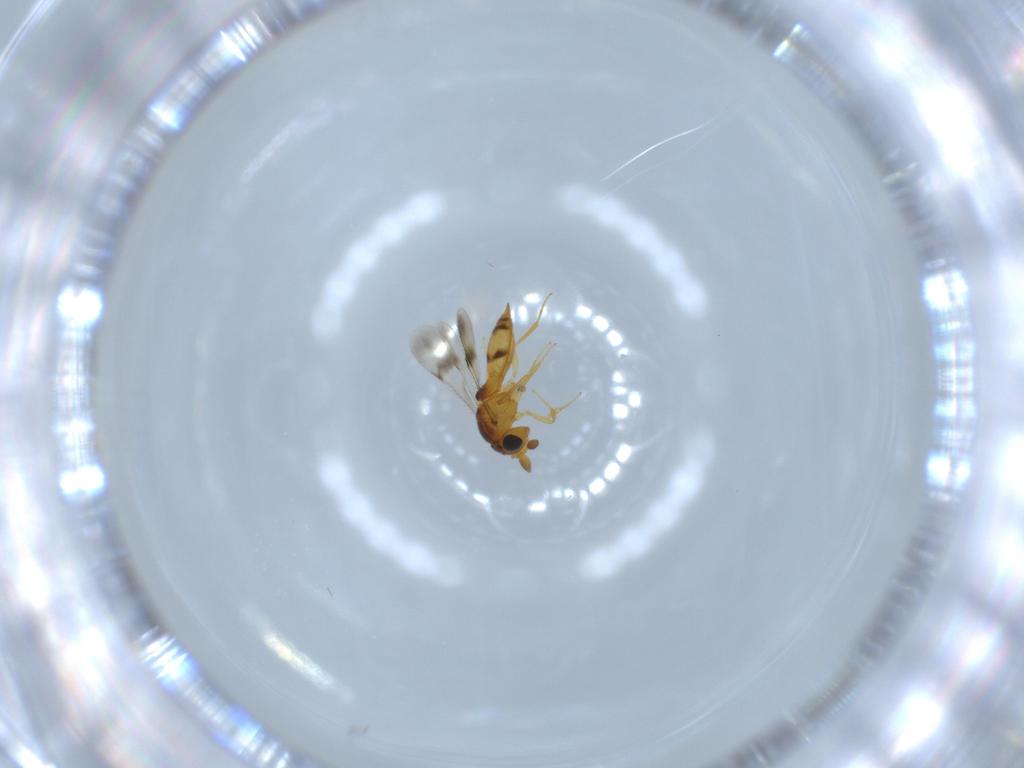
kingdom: Animalia
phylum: Arthropoda
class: Insecta
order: Hymenoptera
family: Scelionidae
